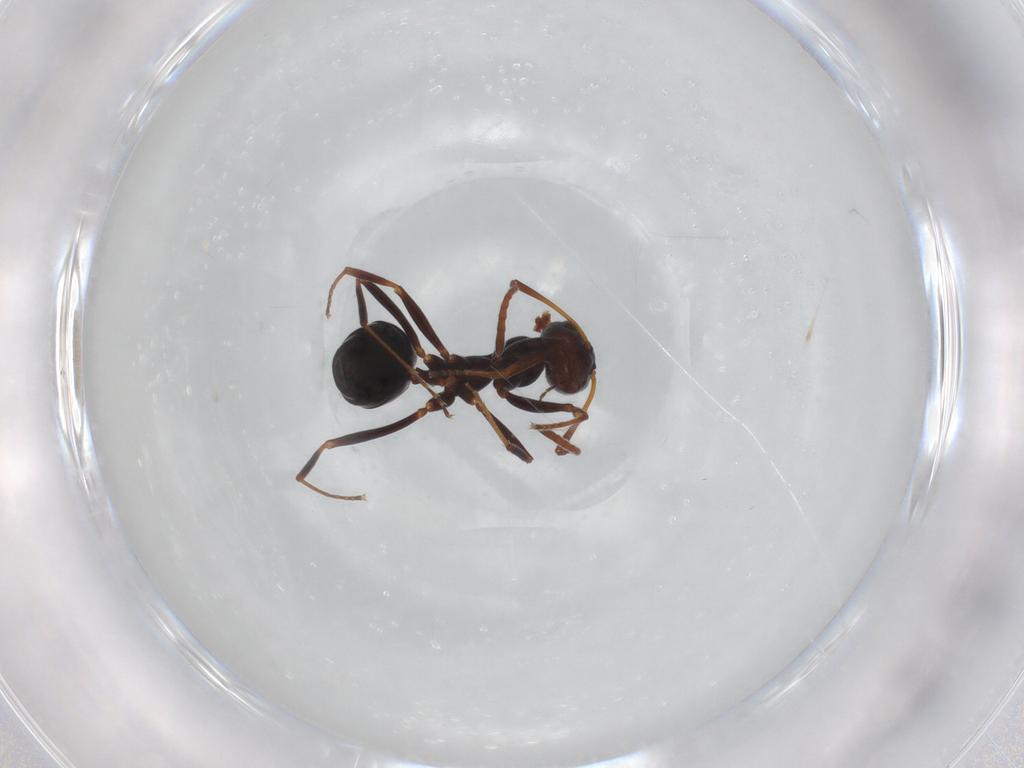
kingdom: Animalia
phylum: Arthropoda
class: Insecta
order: Hymenoptera
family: Formicidae
